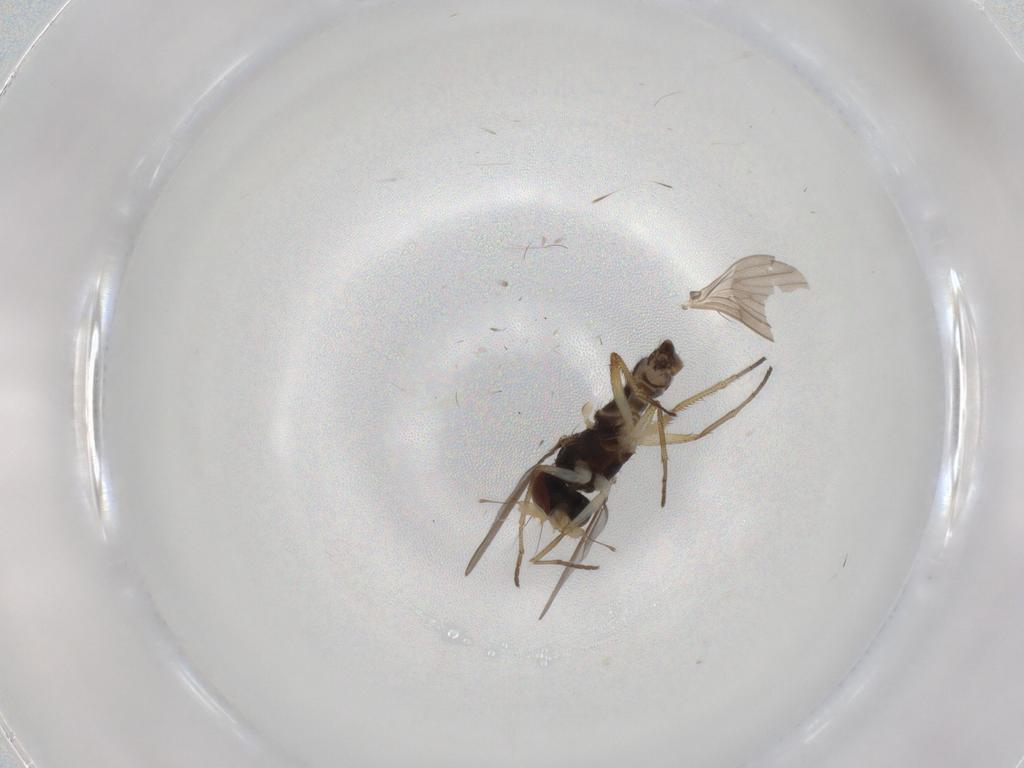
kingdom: Animalia
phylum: Arthropoda
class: Insecta
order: Diptera
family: Dolichopodidae
